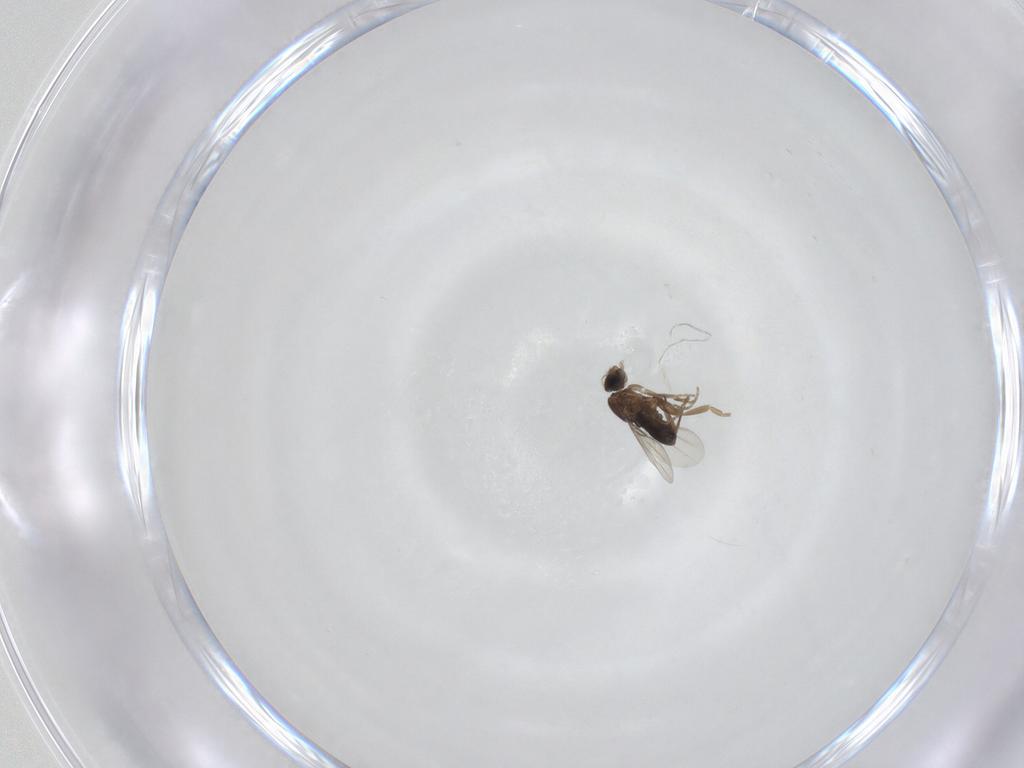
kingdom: Animalia
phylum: Arthropoda
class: Insecta
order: Diptera
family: Phoridae
